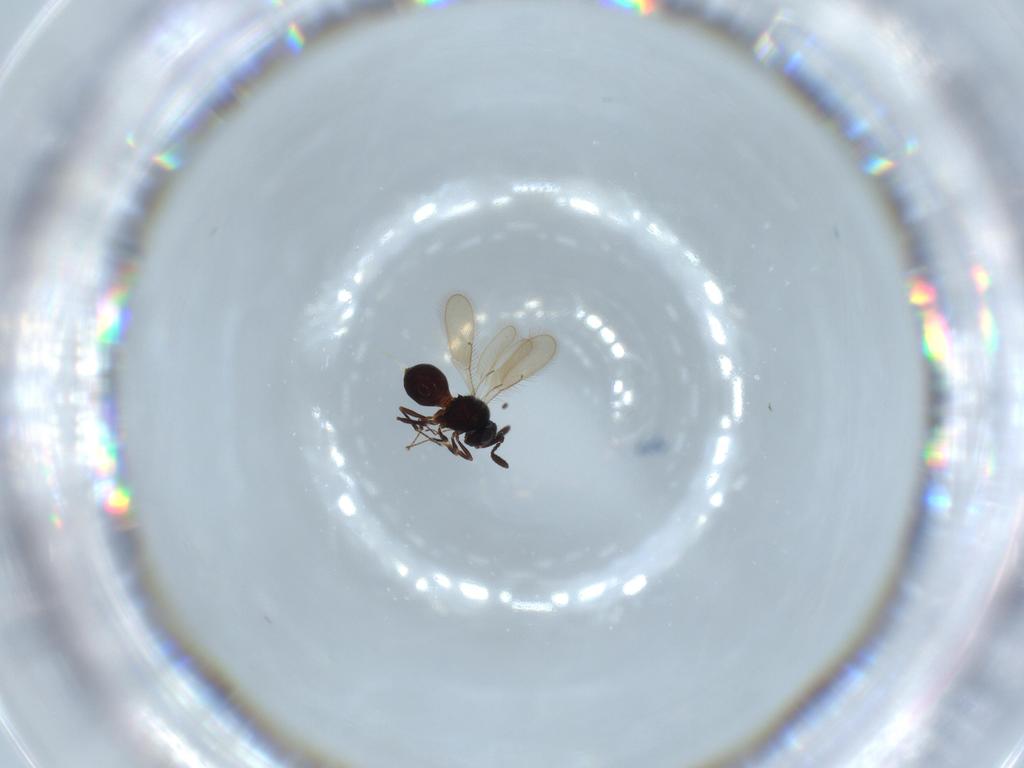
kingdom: Animalia
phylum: Arthropoda
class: Insecta
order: Hymenoptera
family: Scelionidae
